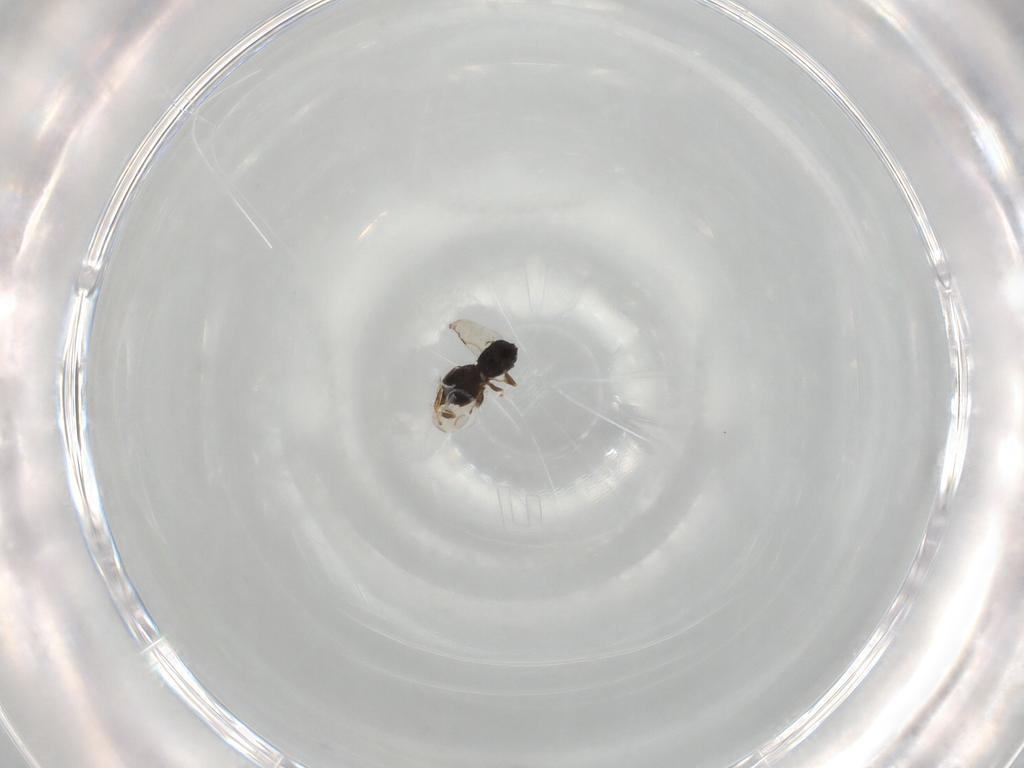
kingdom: Animalia
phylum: Arthropoda
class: Insecta
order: Hymenoptera
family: Platygastridae
